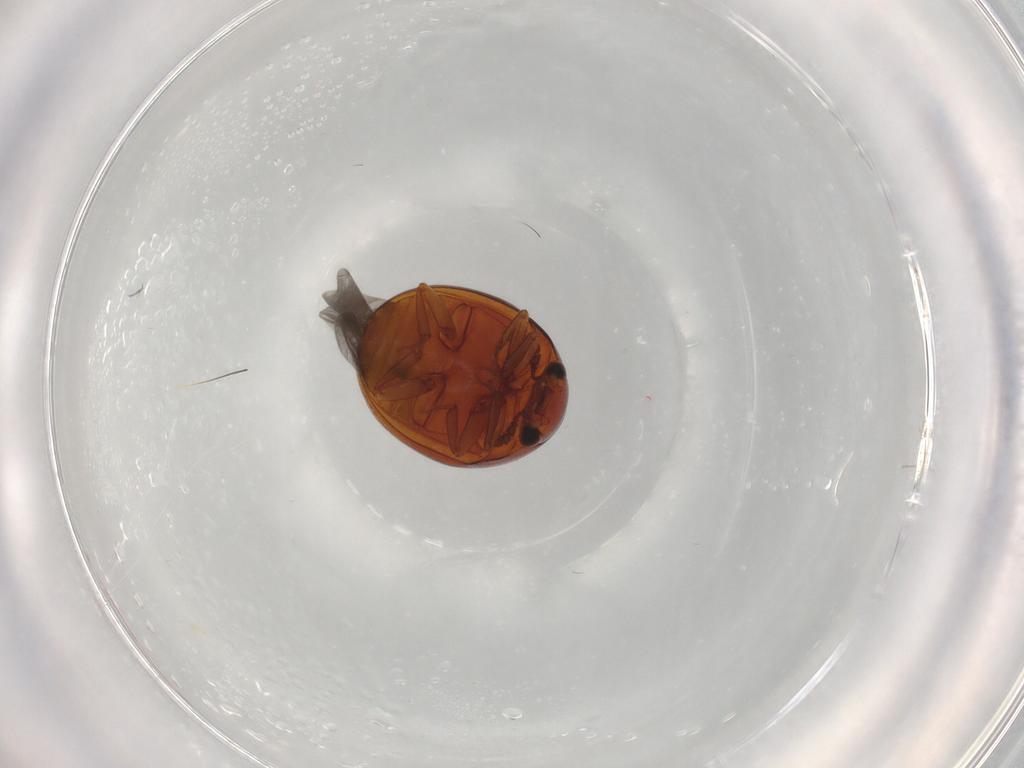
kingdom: Animalia
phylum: Arthropoda
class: Insecta
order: Coleoptera
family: Nitidulidae
